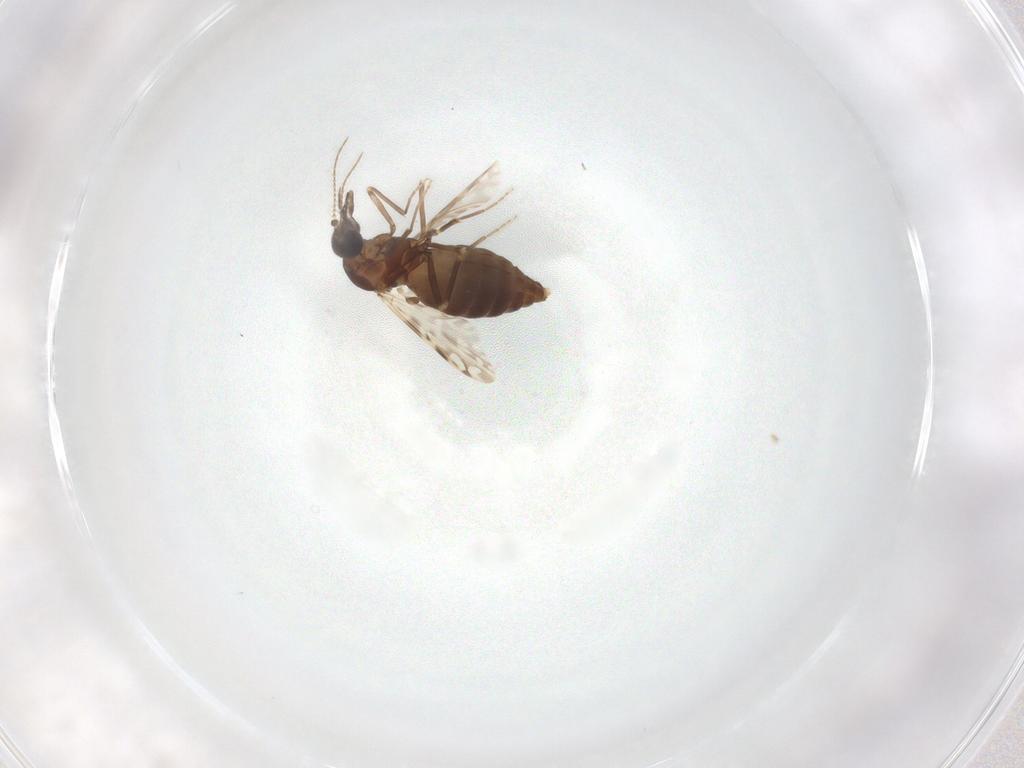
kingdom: Animalia
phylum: Arthropoda
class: Insecta
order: Diptera
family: Ceratopogonidae
